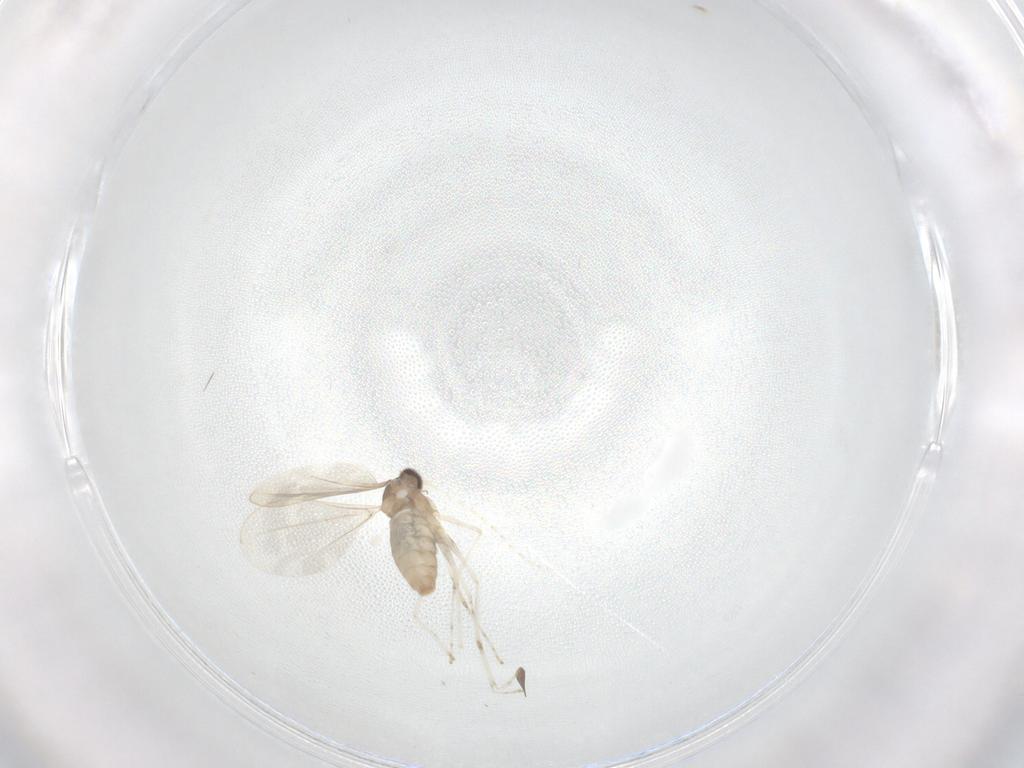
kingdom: Animalia
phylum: Arthropoda
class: Insecta
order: Diptera
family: Cecidomyiidae
